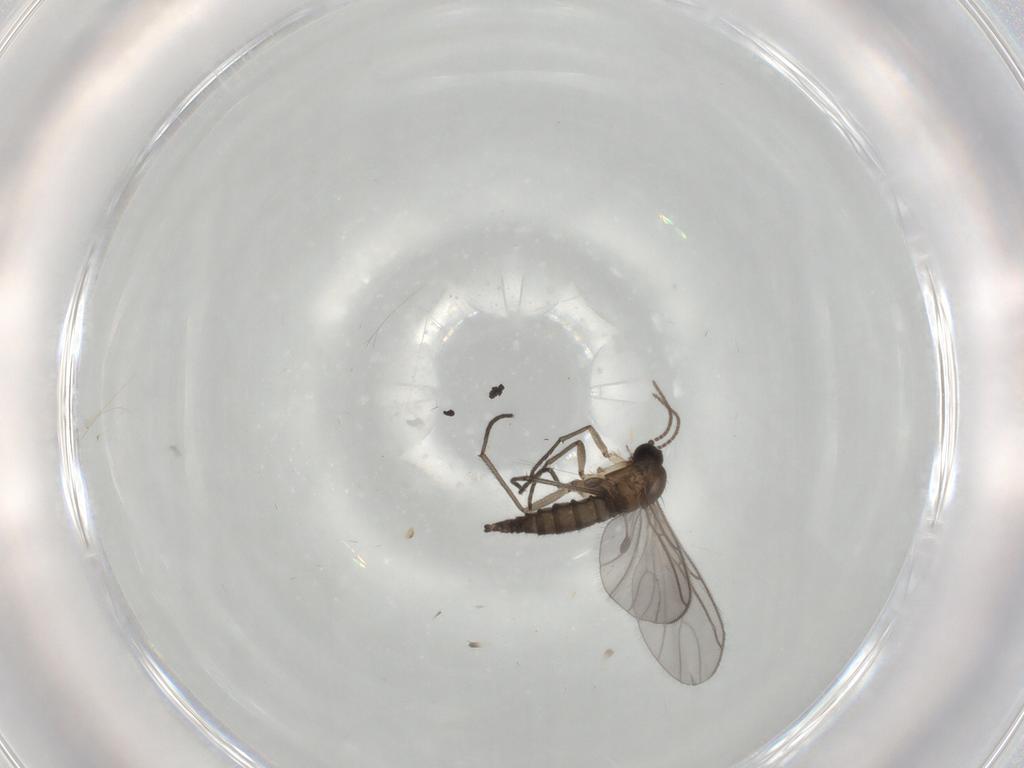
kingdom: Animalia
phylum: Arthropoda
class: Insecta
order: Diptera
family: Sciaridae
